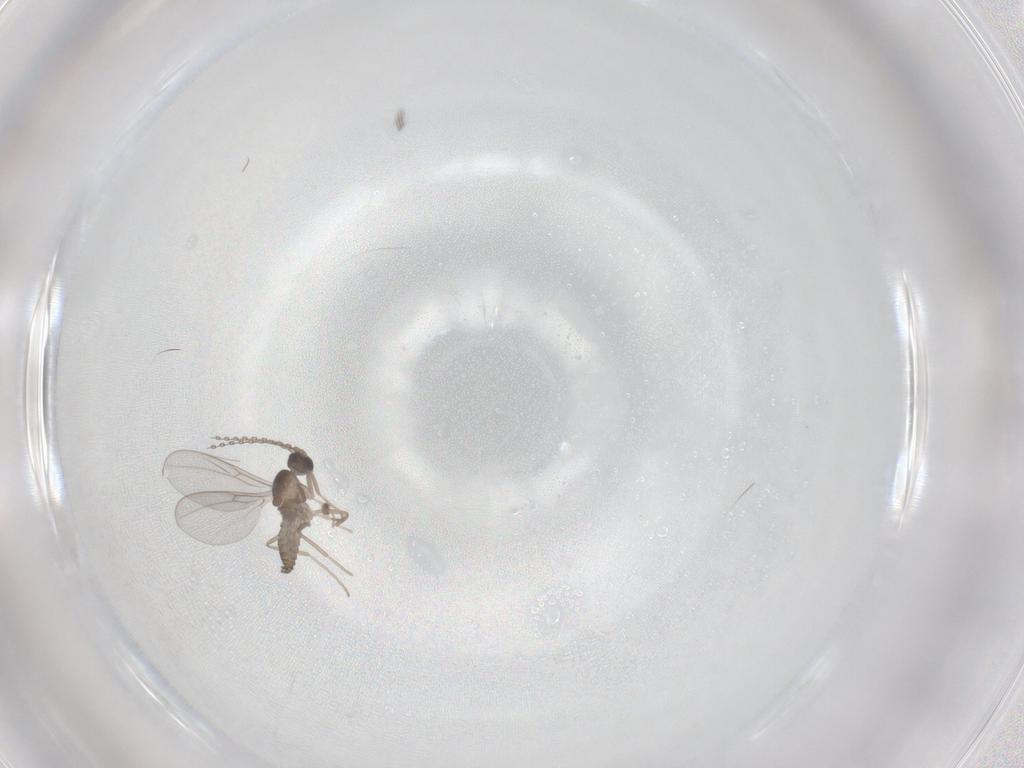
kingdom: Animalia
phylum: Arthropoda
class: Insecta
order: Diptera
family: Cecidomyiidae
